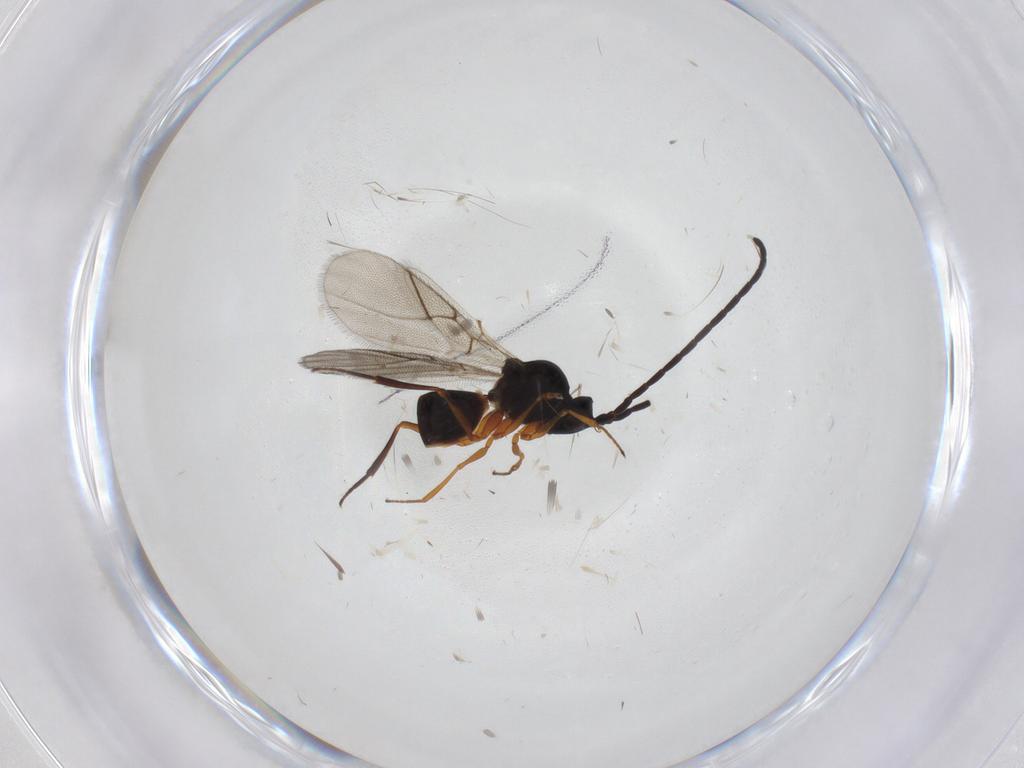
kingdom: Animalia
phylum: Arthropoda
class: Insecta
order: Hymenoptera
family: Figitidae
